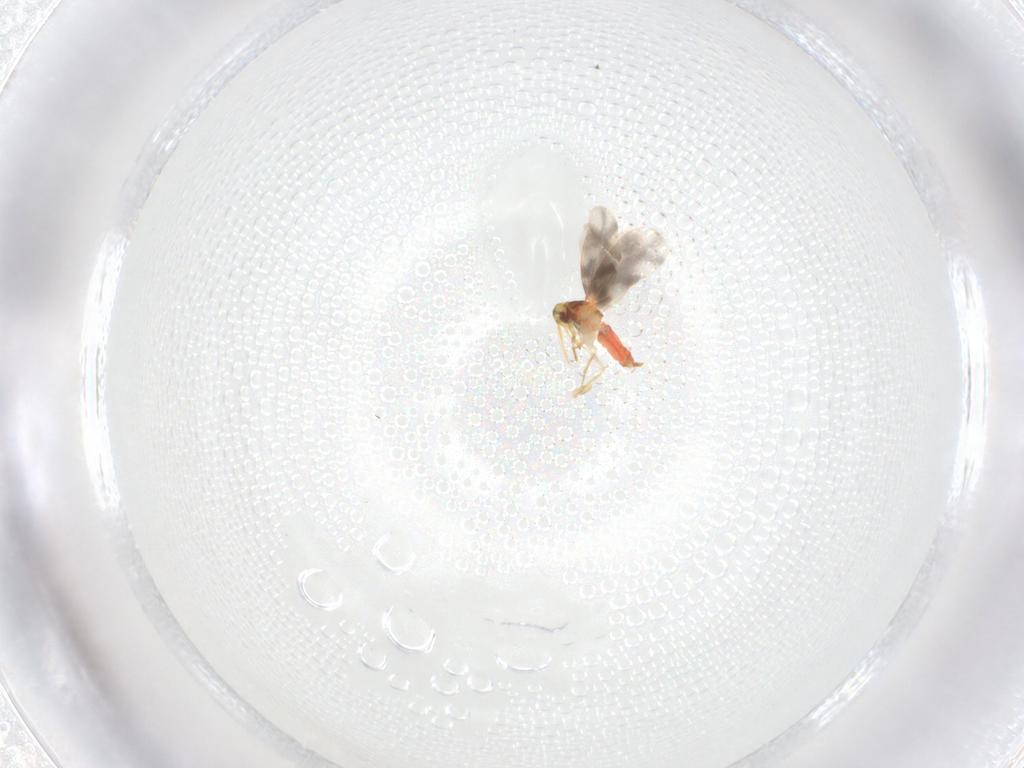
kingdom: Animalia
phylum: Arthropoda
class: Insecta
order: Hemiptera
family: Aleyrodidae
